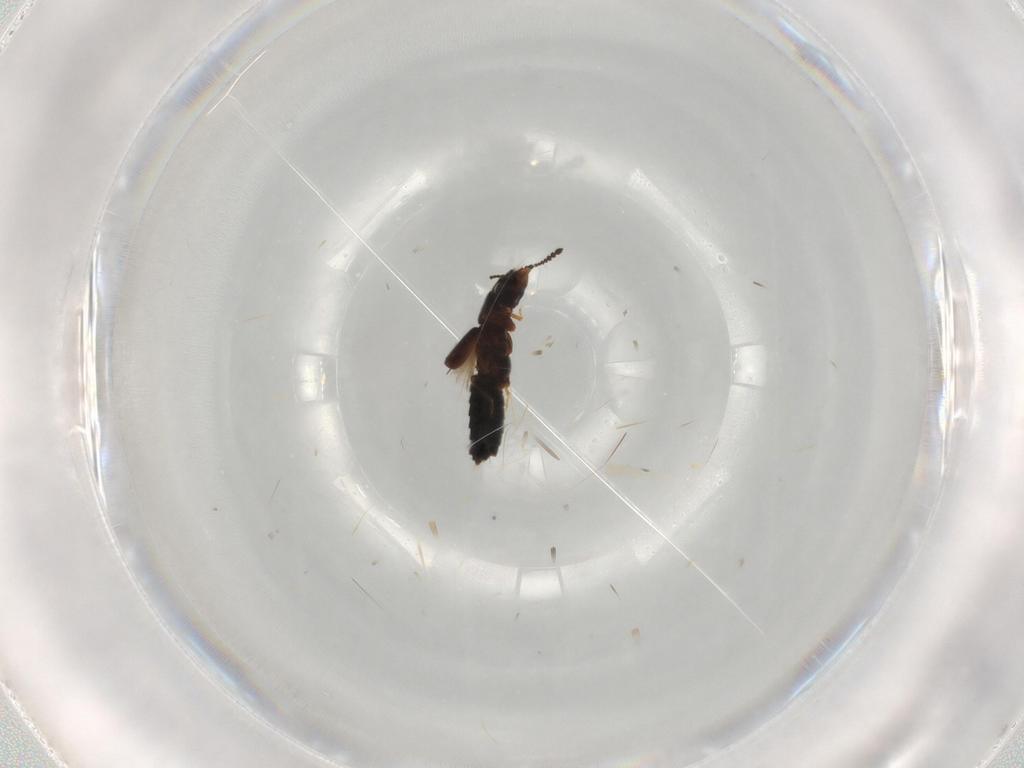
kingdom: Animalia
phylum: Arthropoda
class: Insecta
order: Coleoptera
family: Staphylinidae
